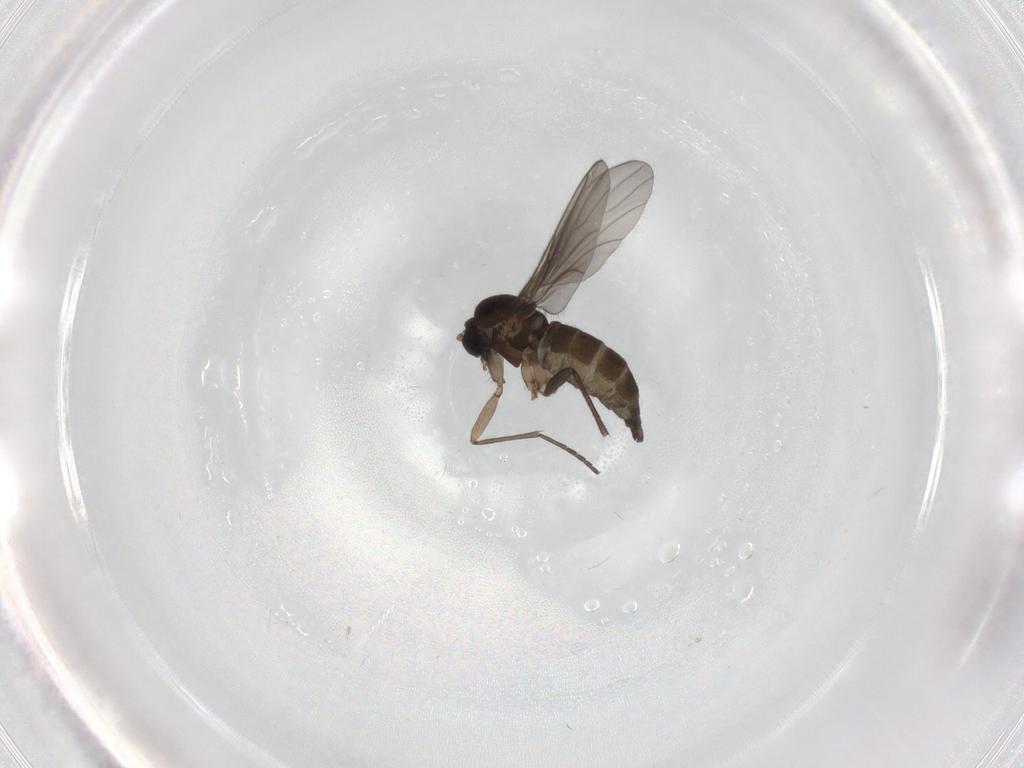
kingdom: Animalia
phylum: Arthropoda
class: Insecta
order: Diptera
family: Sciaridae
